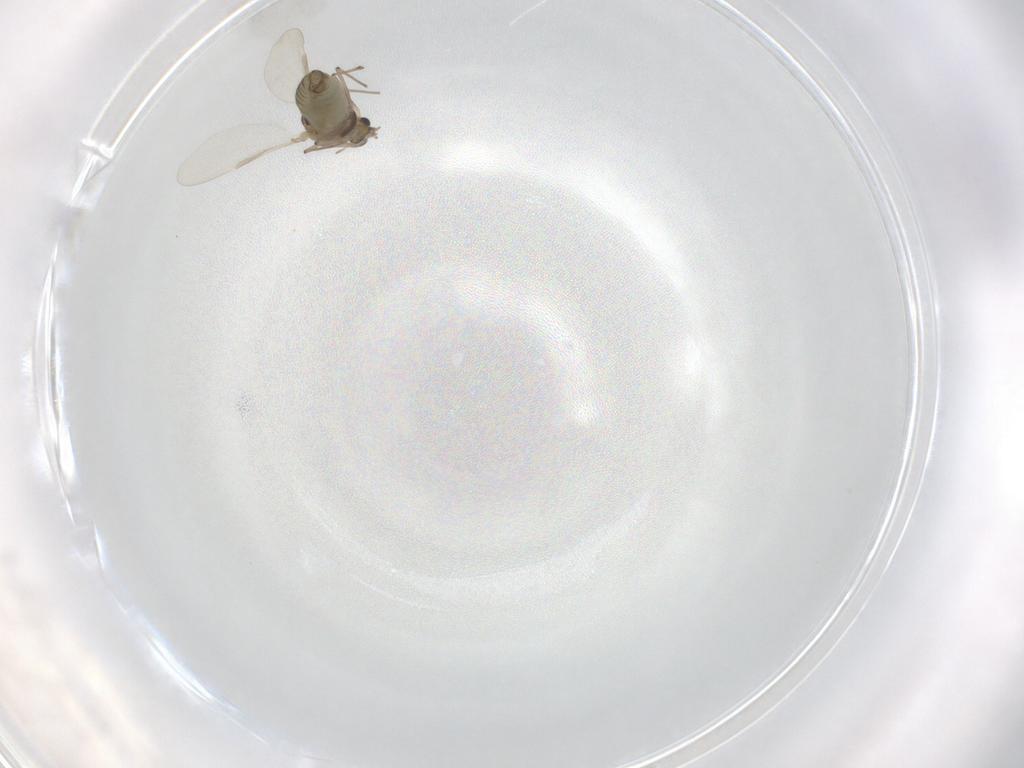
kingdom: Animalia
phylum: Arthropoda
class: Insecta
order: Diptera
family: Chironomidae
